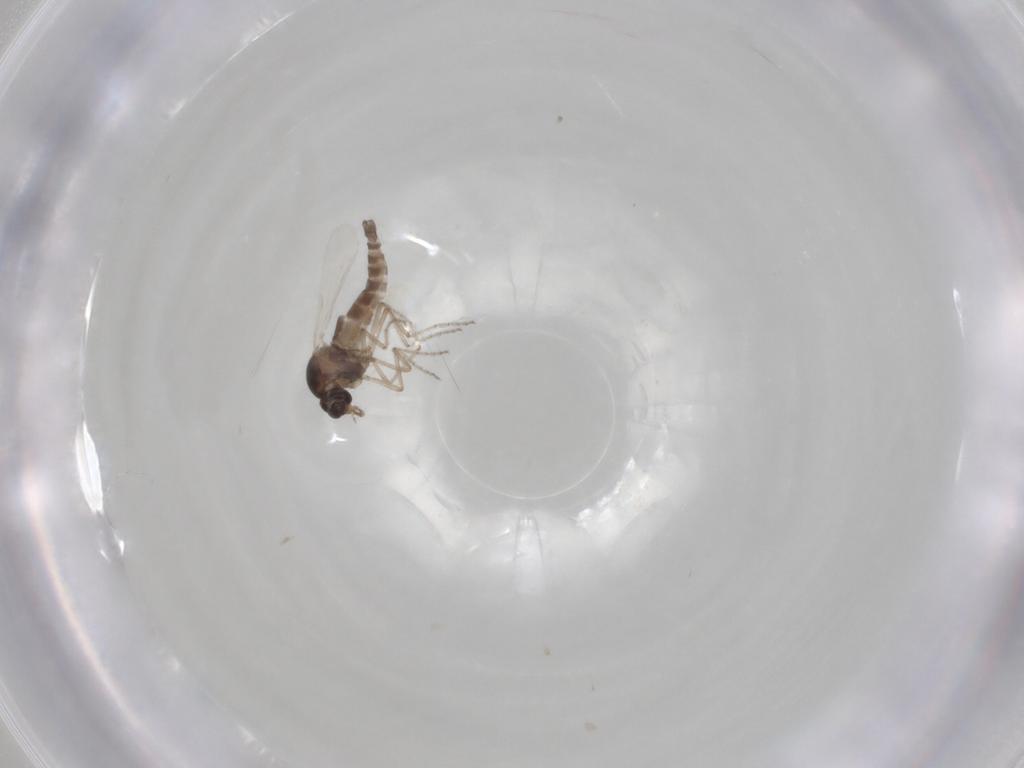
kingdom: Animalia
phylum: Arthropoda
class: Insecta
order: Diptera
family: Ceratopogonidae
